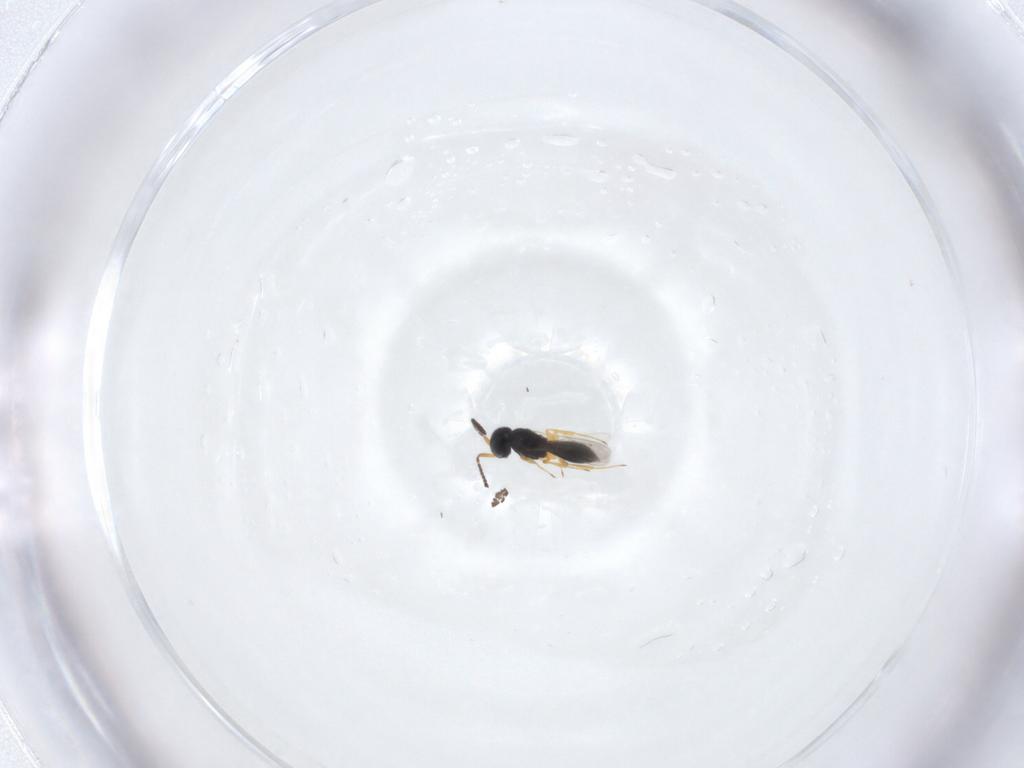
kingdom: Animalia
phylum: Arthropoda
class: Insecta
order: Hymenoptera
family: Scelionidae
